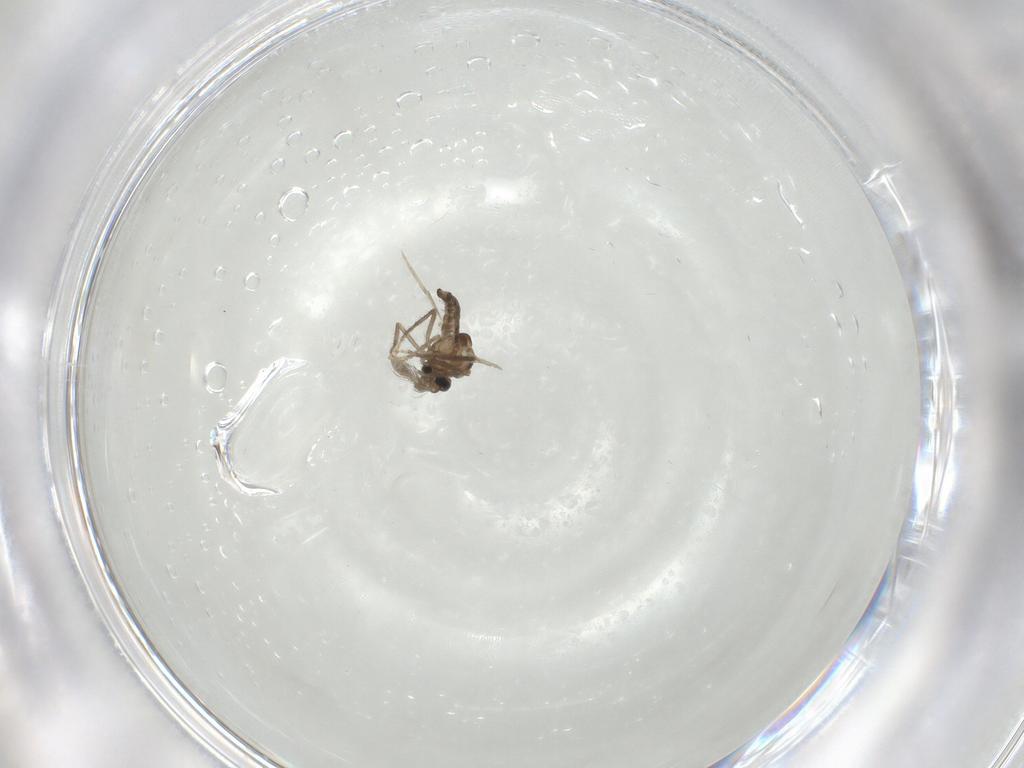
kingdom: Animalia
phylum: Arthropoda
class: Insecta
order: Diptera
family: Ceratopogonidae
